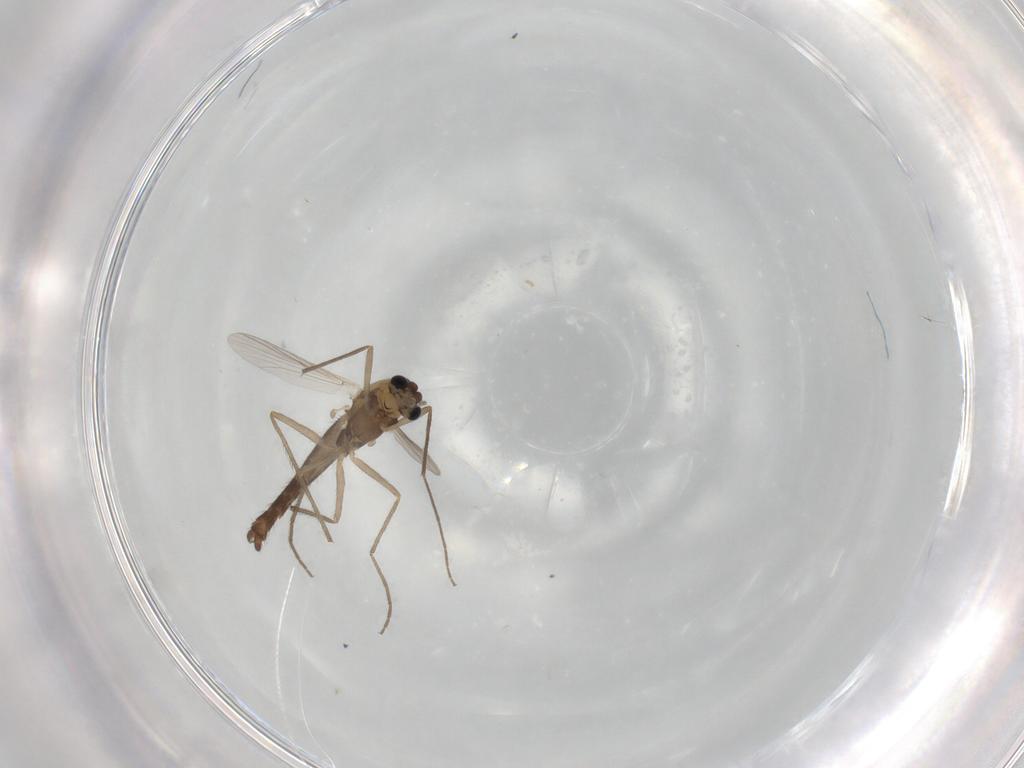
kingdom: Animalia
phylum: Arthropoda
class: Insecta
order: Diptera
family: Chironomidae
